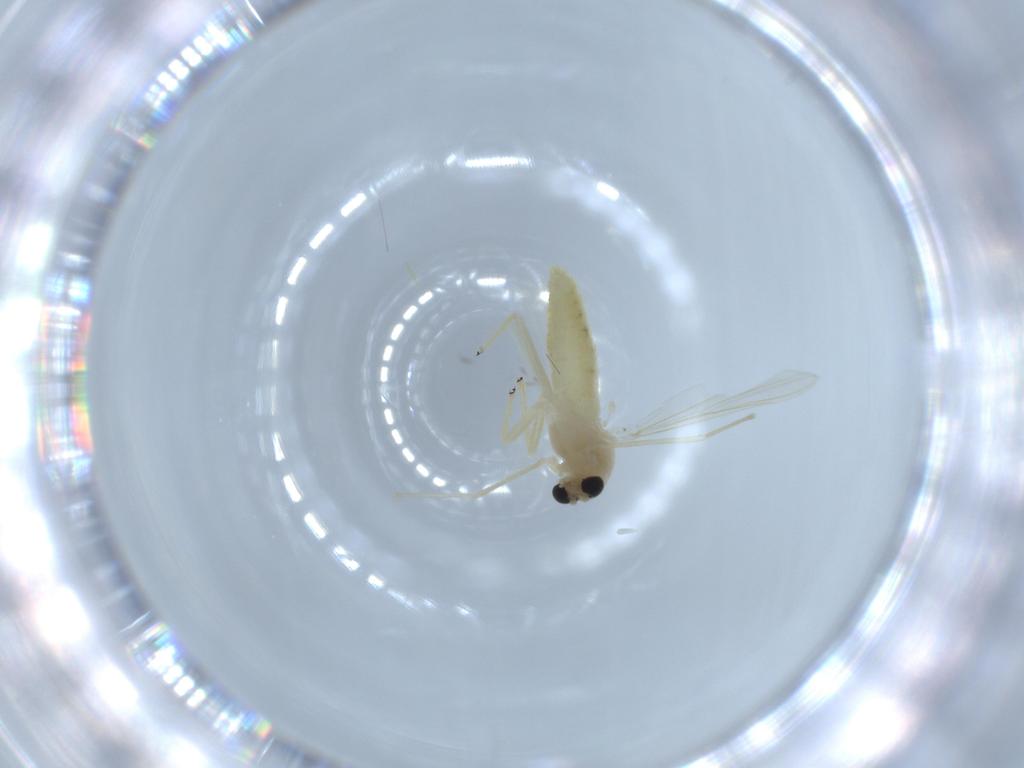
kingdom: Animalia
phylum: Arthropoda
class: Insecta
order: Diptera
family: Chironomidae
